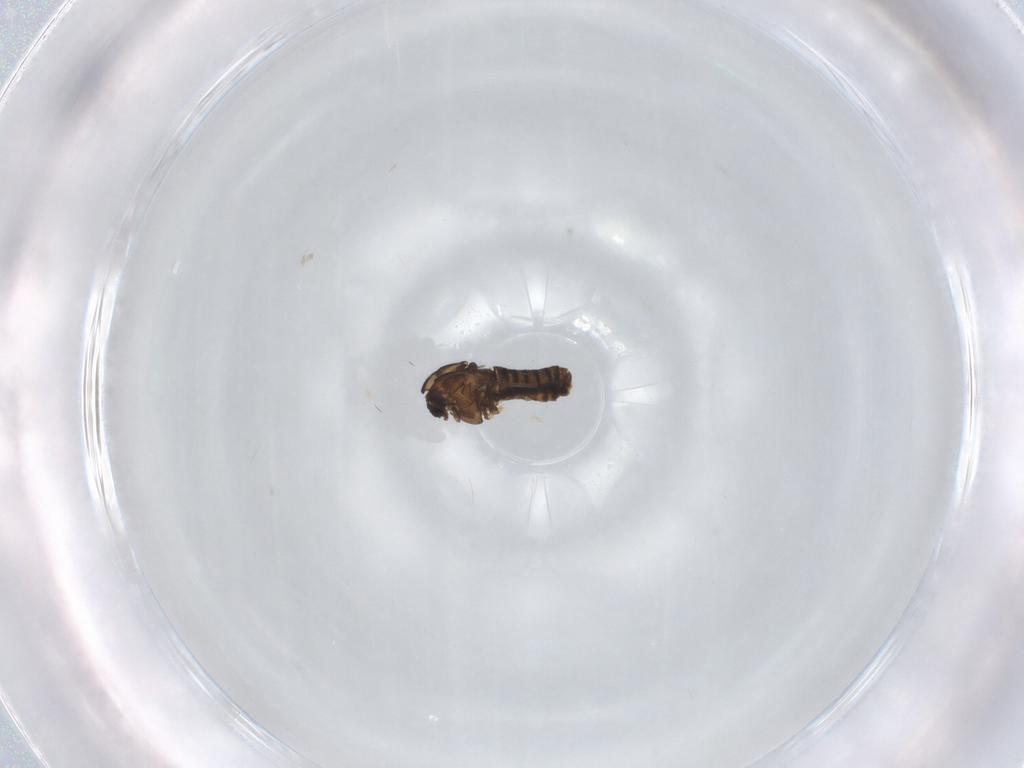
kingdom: Animalia
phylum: Arthropoda
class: Insecta
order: Diptera
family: Chironomidae
